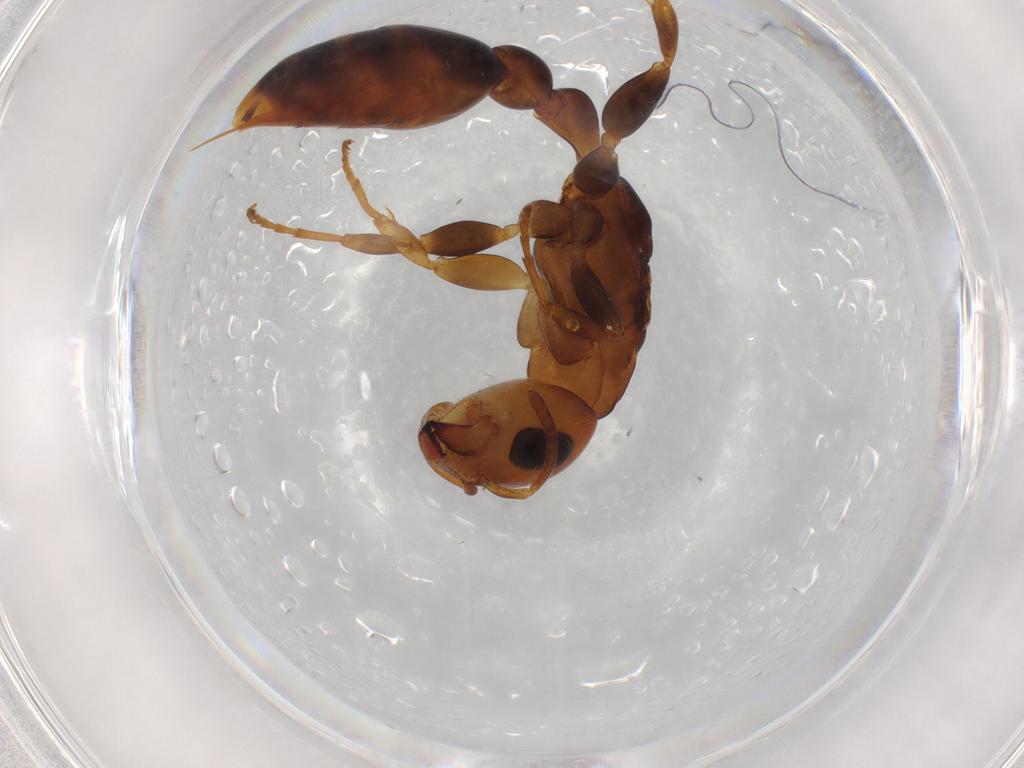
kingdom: Animalia
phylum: Arthropoda
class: Insecta
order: Hymenoptera
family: Formicidae
